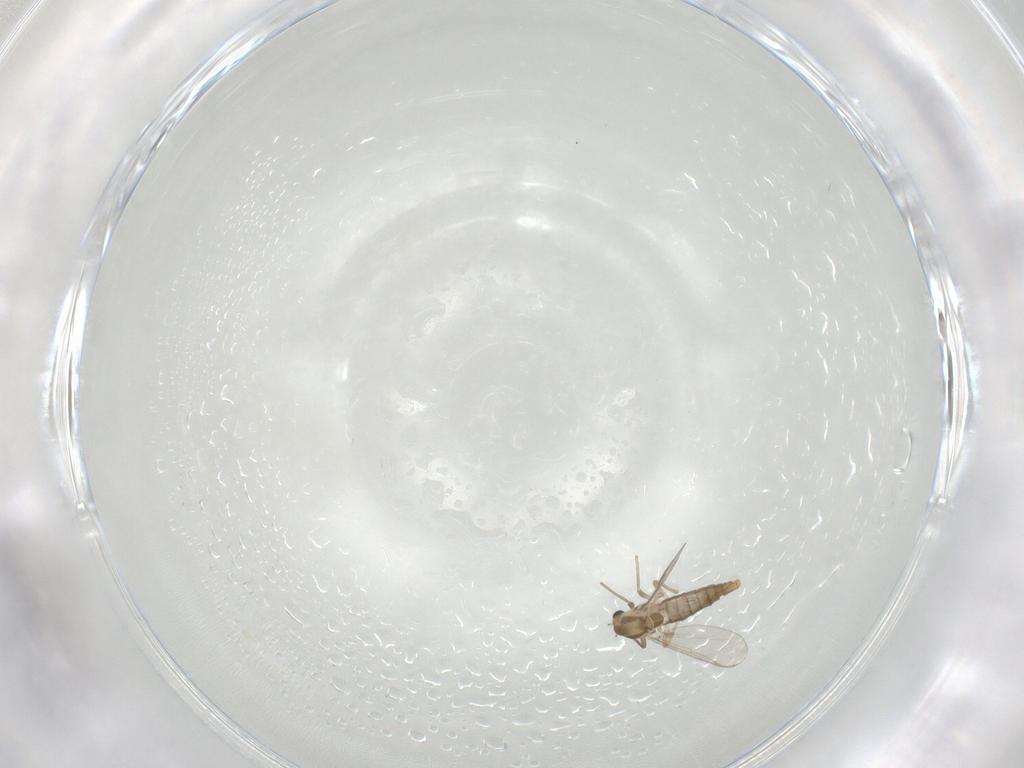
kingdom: Animalia
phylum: Arthropoda
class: Insecta
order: Diptera
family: Chironomidae
